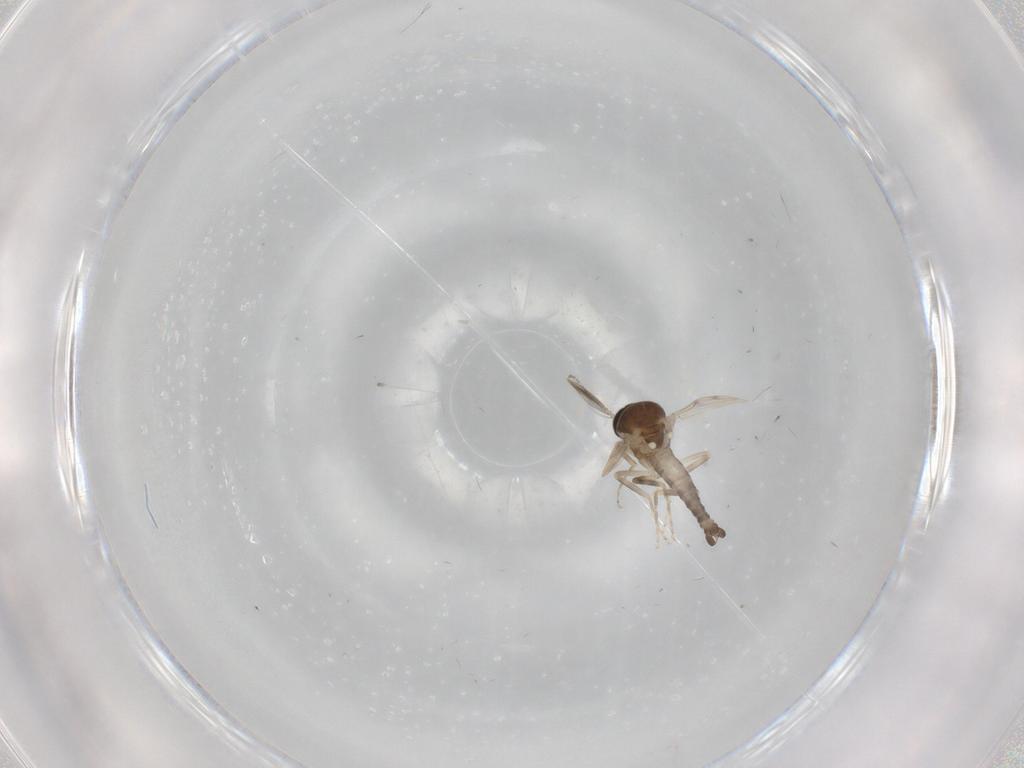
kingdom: Animalia
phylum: Arthropoda
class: Insecta
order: Diptera
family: Ceratopogonidae
